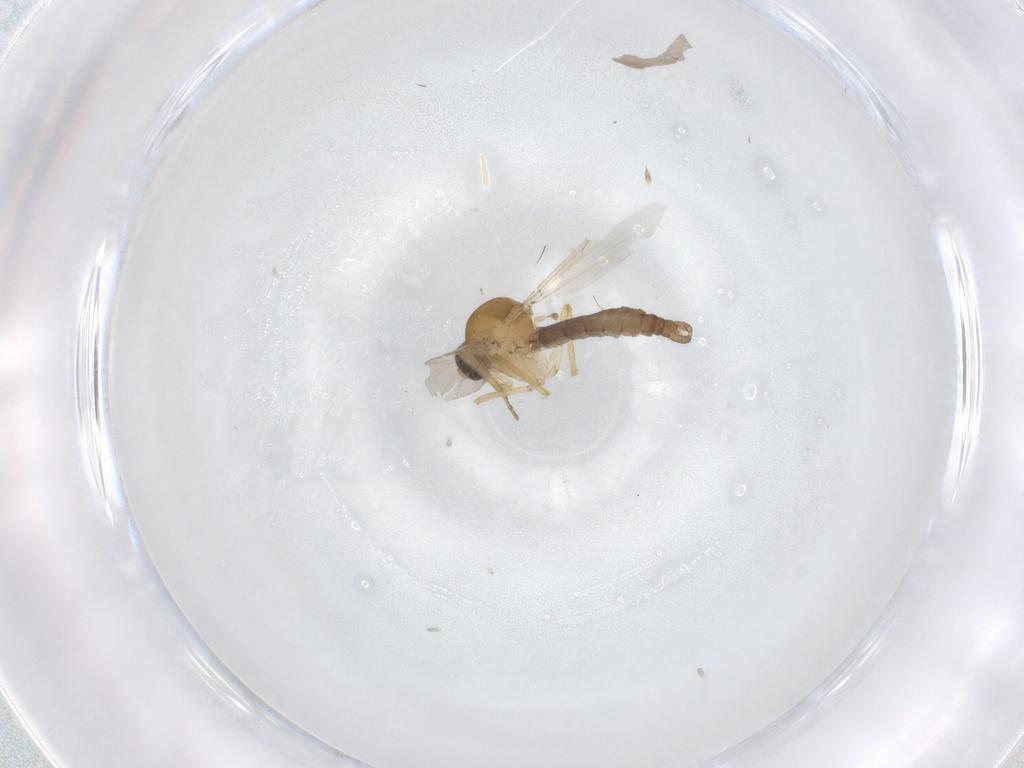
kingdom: Animalia
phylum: Arthropoda
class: Insecta
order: Diptera
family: Ceratopogonidae
